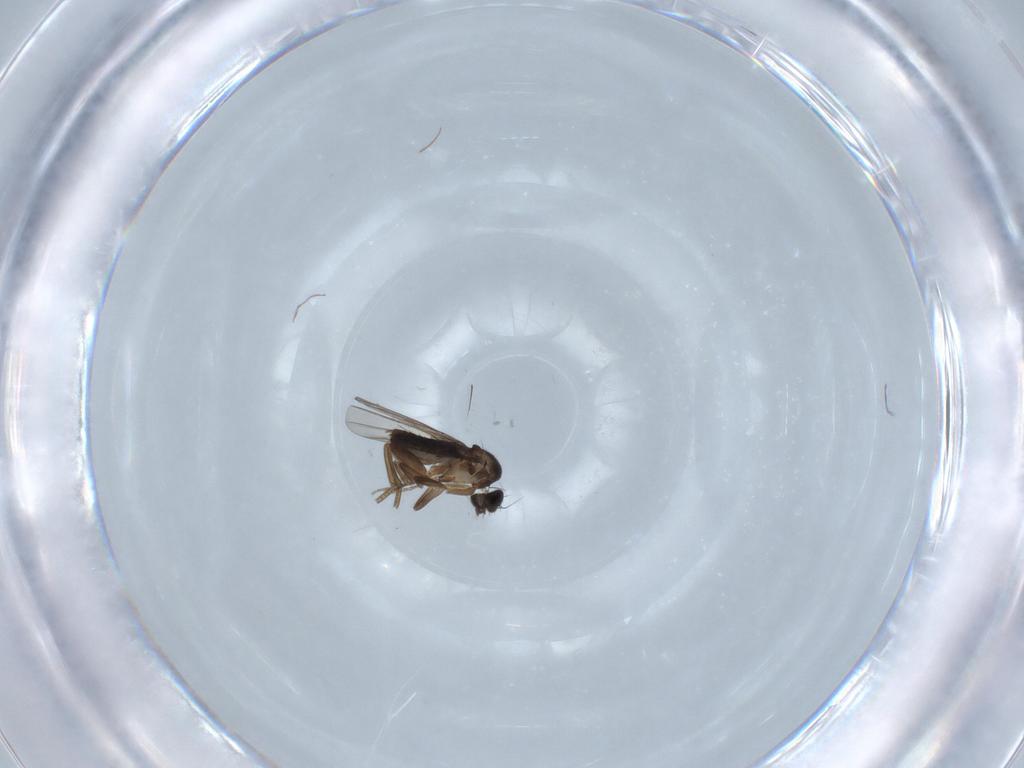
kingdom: Animalia
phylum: Arthropoda
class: Insecta
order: Diptera
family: Phoridae
